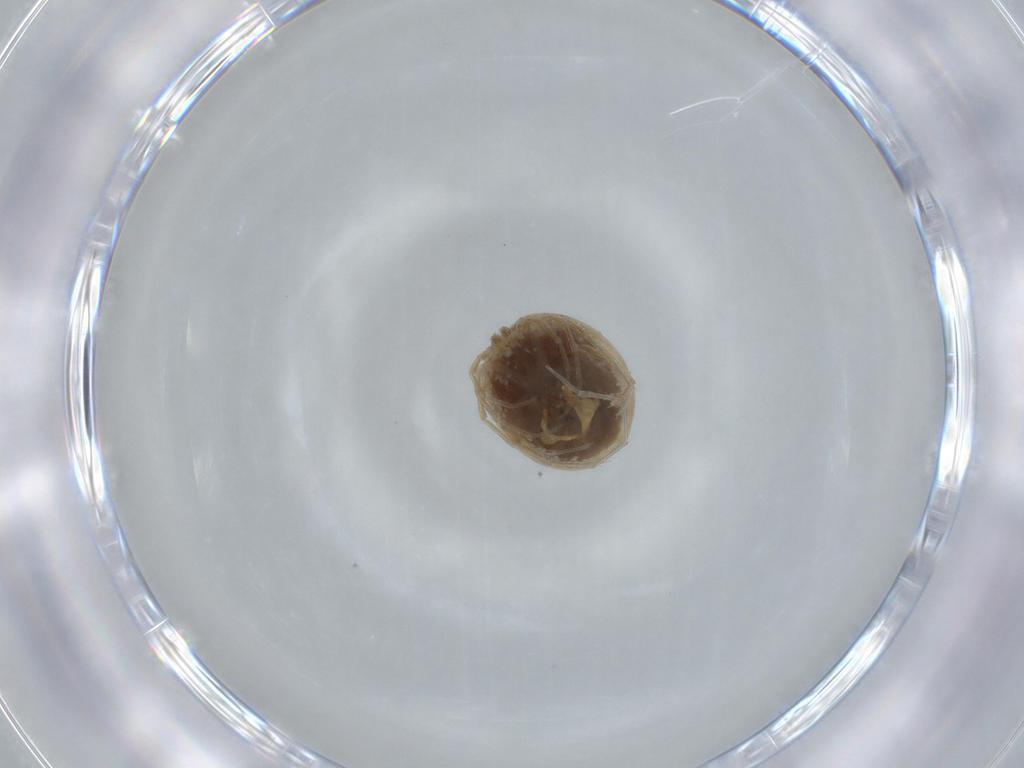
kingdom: Animalia
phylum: Arthropoda
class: Arachnida
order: Trombidiformes
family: Hygrobatidae
